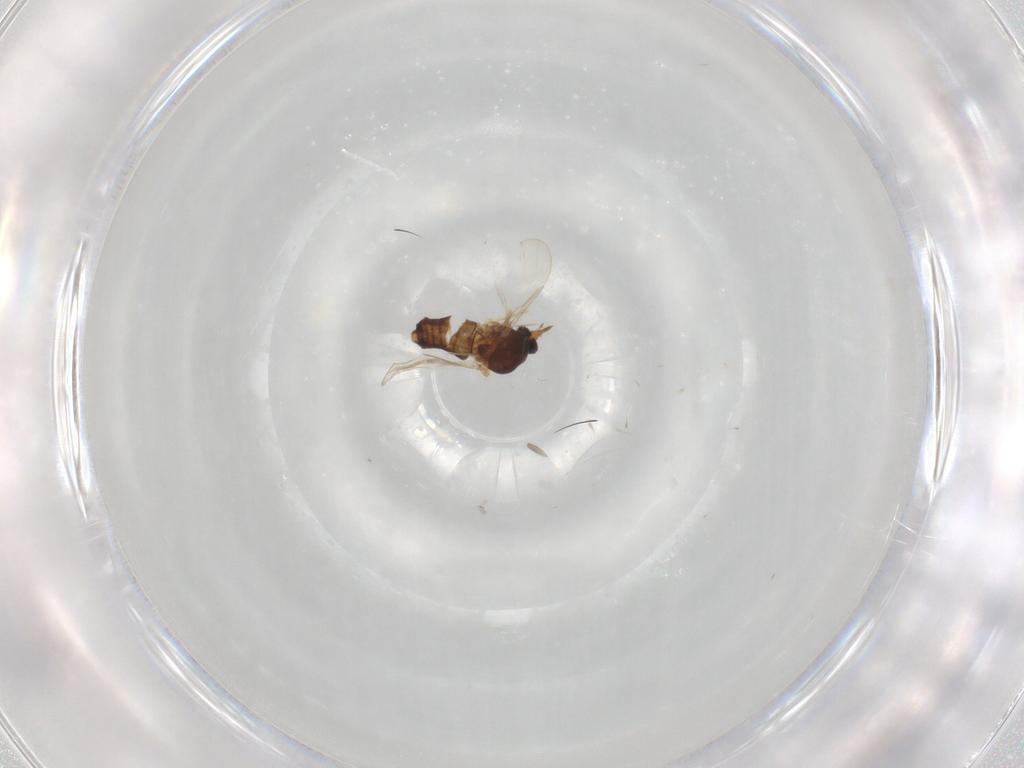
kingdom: Animalia
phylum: Arthropoda
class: Insecta
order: Diptera
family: Ceratopogonidae
